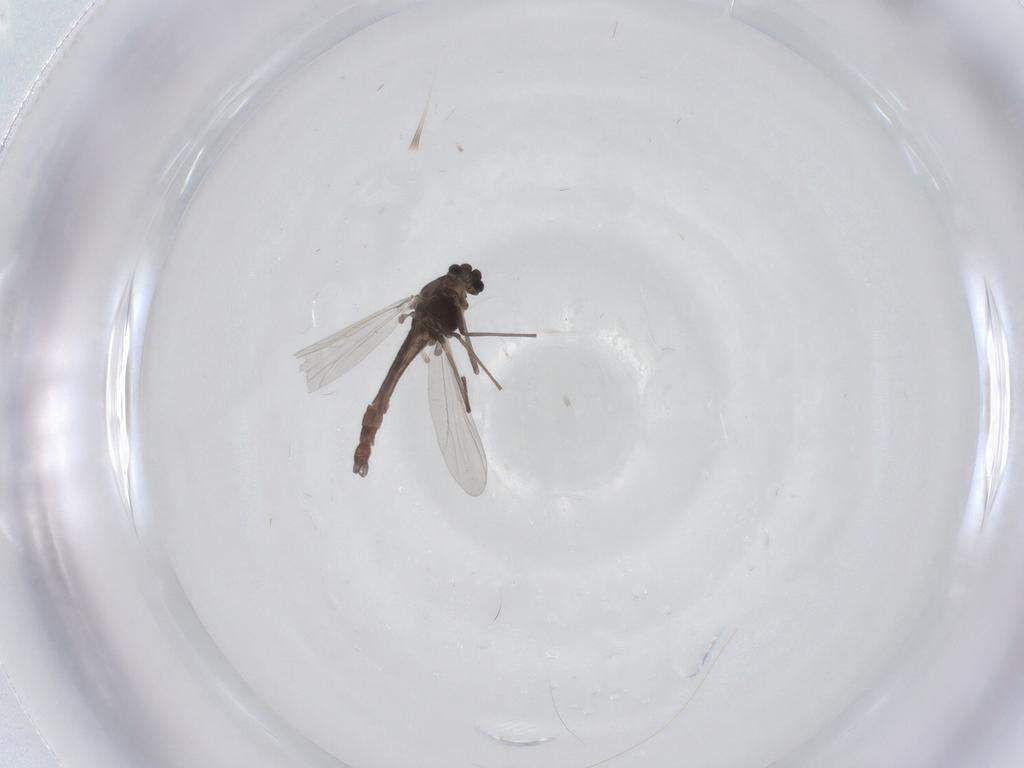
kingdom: Animalia
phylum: Arthropoda
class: Insecta
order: Diptera
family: Chironomidae
